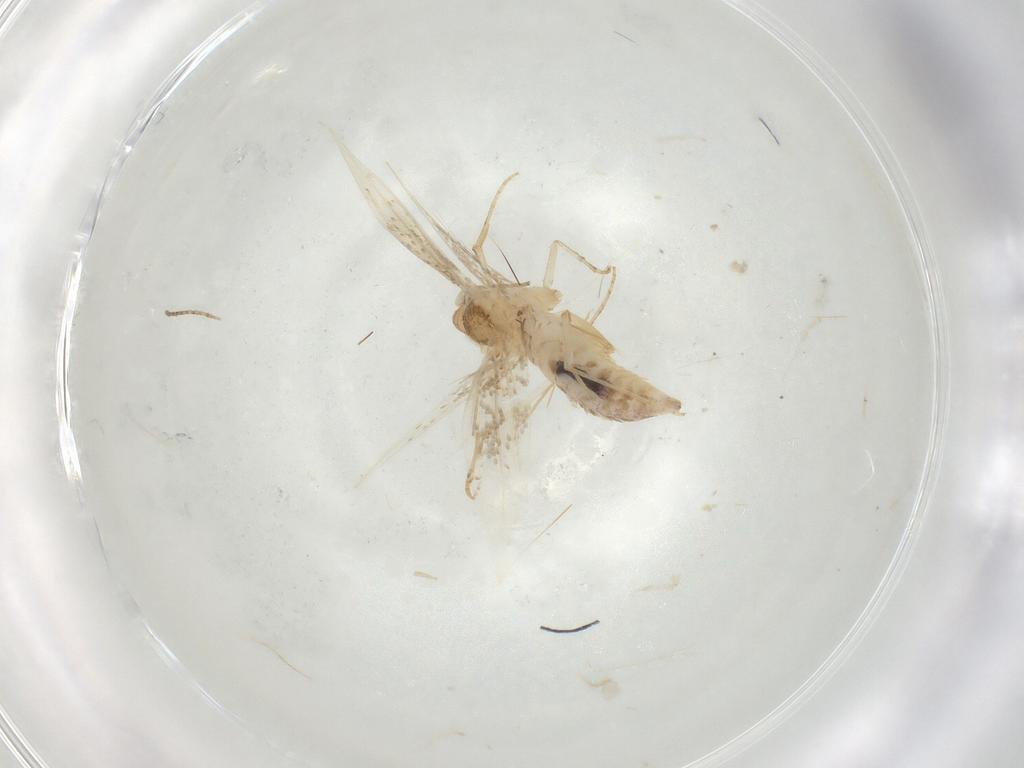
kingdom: Animalia
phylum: Arthropoda
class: Insecta
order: Lepidoptera
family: Bucculatricidae
